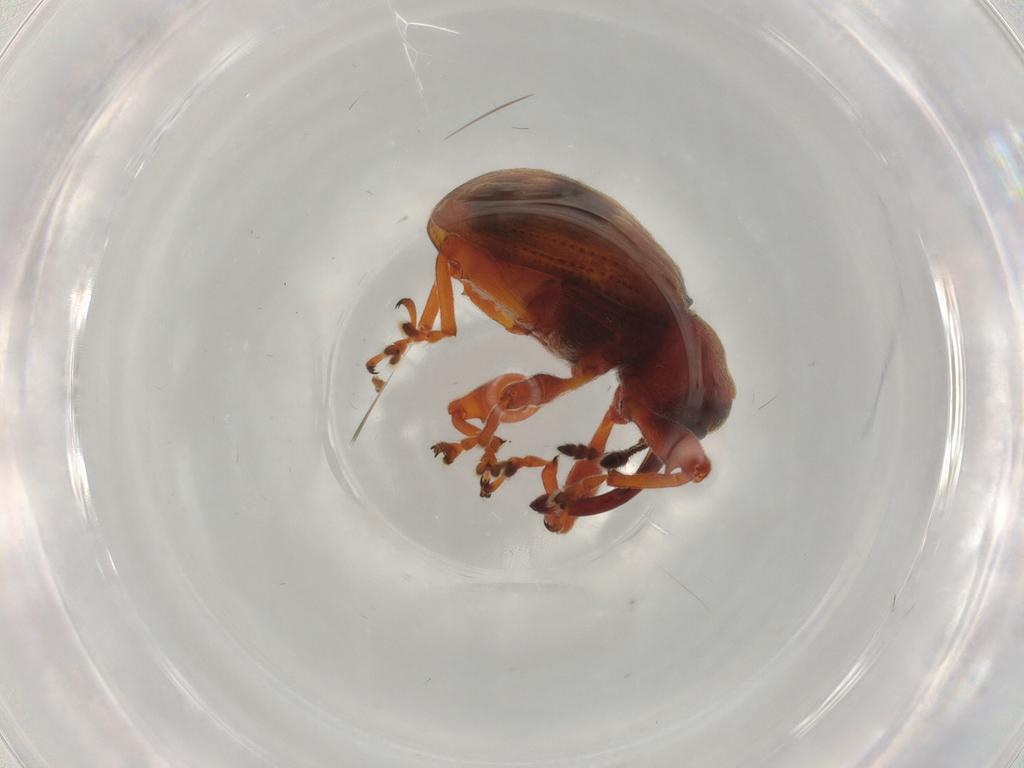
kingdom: Animalia
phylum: Arthropoda
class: Insecta
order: Coleoptera
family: Curculionidae
